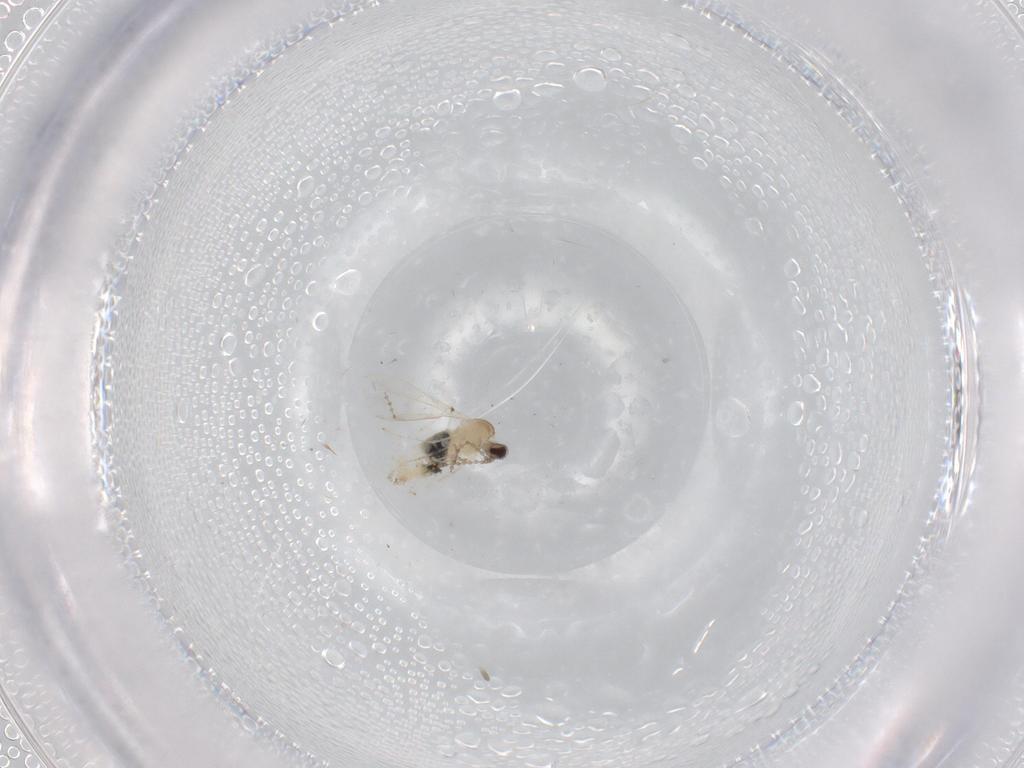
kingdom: Animalia
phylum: Arthropoda
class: Insecta
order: Diptera
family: Cecidomyiidae
